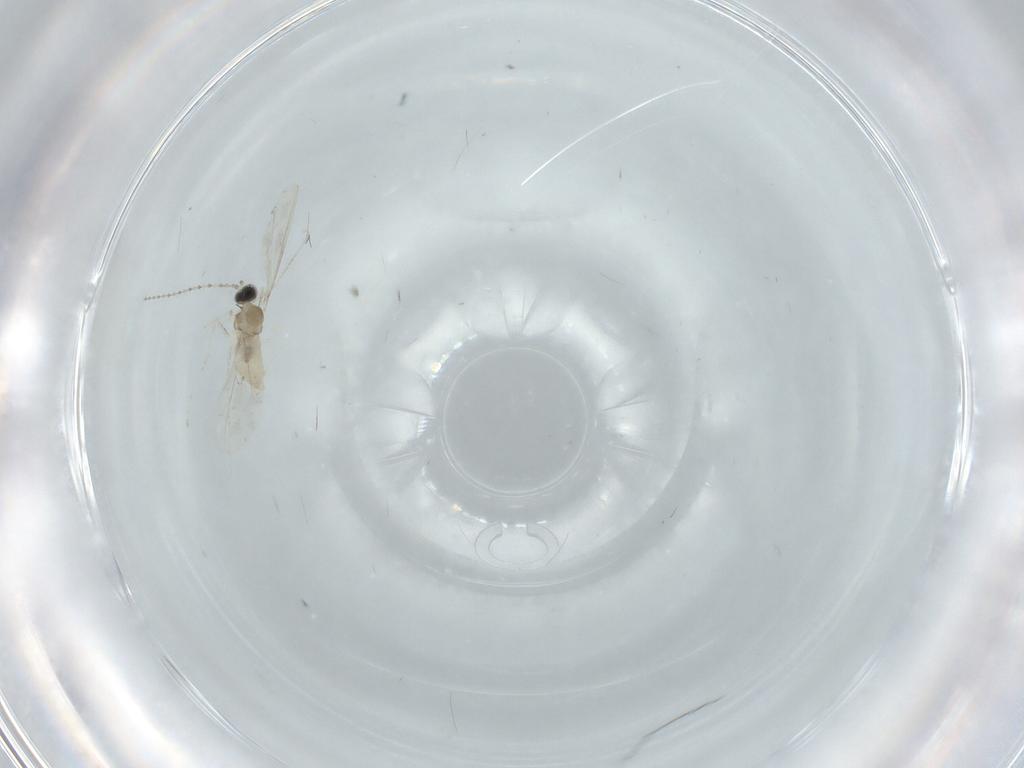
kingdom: Animalia
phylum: Arthropoda
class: Insecta
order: Diptera
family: Cecidomyiidae
